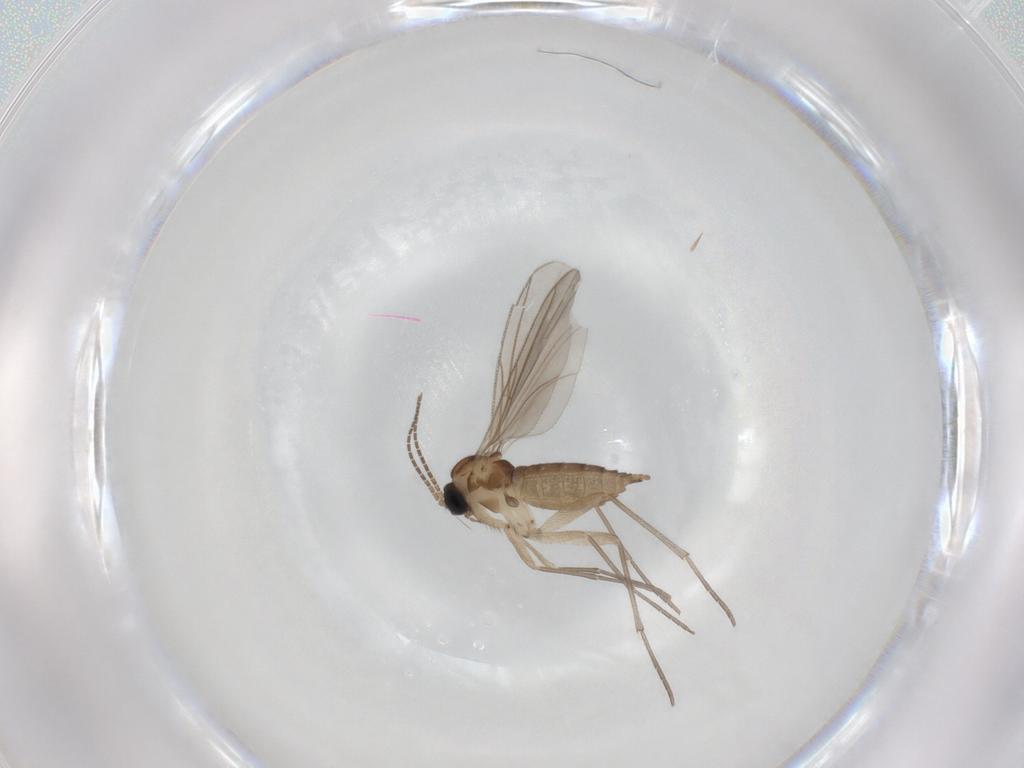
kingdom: Animalia
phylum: Arthropoda
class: Insecta
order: Diptera
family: Sciaridae
